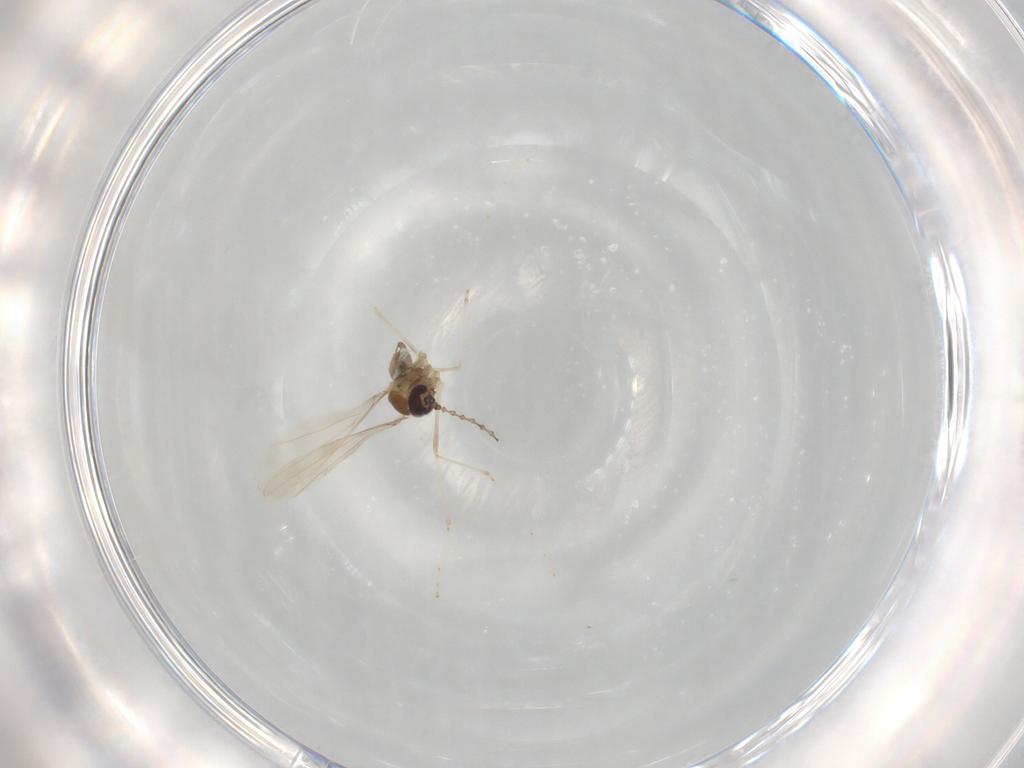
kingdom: Animalia
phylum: Arthropoda
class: Insecta
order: Diptera
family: Cecidomyiidae
